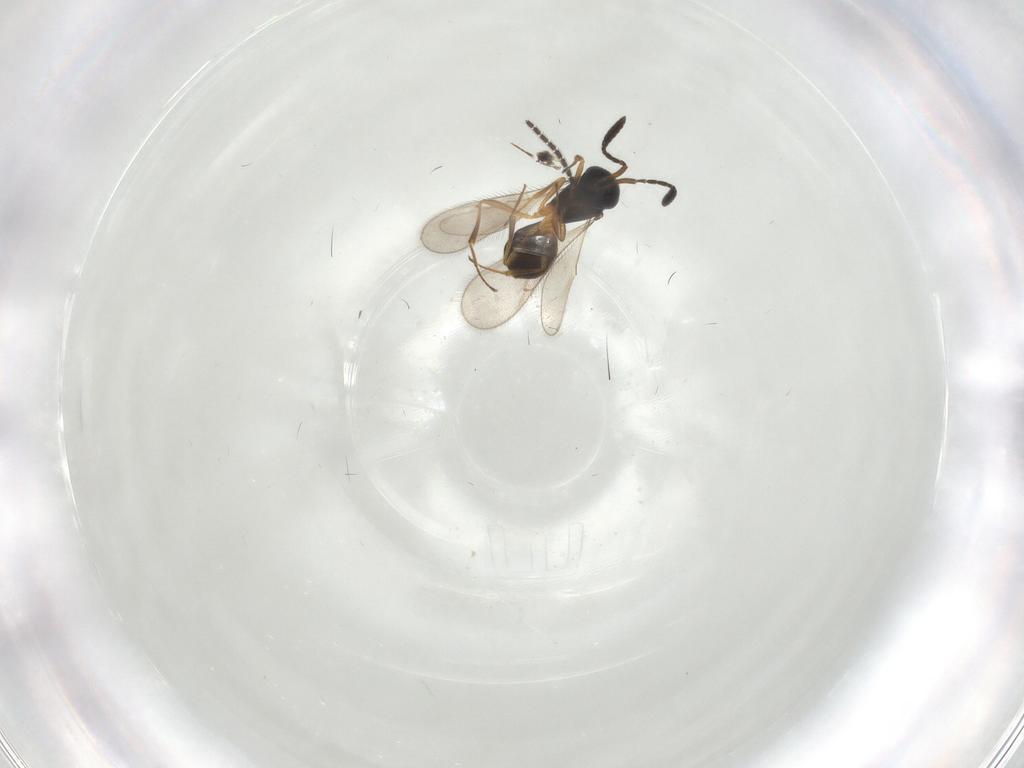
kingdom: Animalia
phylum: Arthropoda
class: Insecta
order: Hymenoptera
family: Scelionidae
